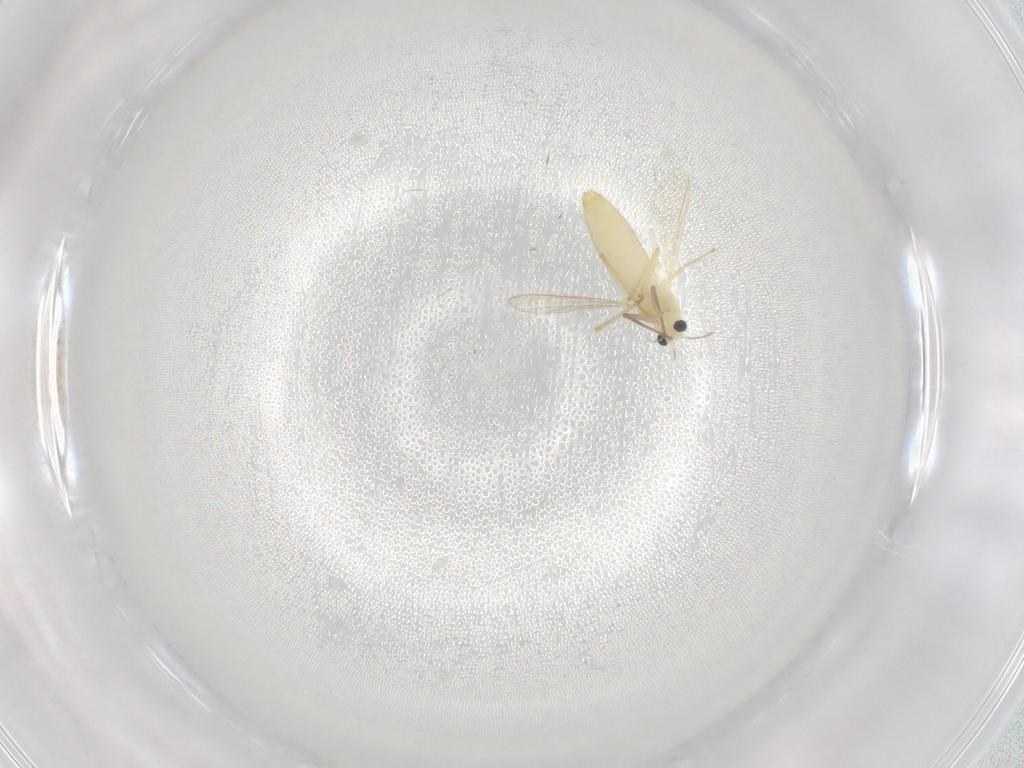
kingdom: Animalia
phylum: Arthropoda
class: Insecta
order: Diptera
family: Chironomidae
